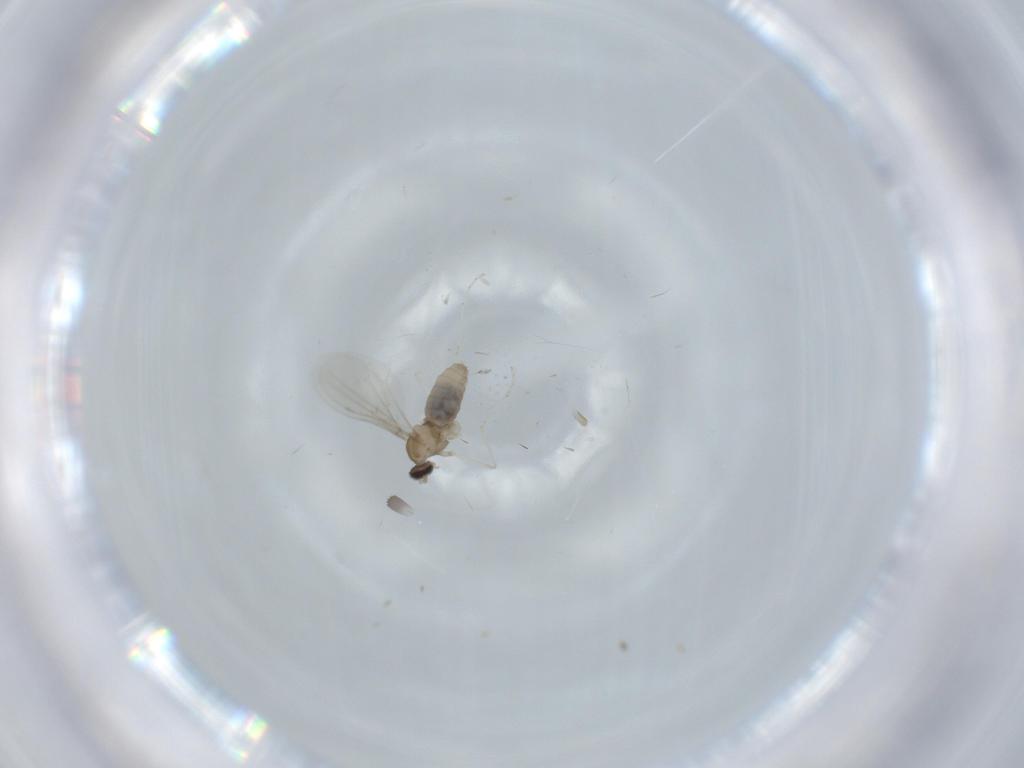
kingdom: Animalia
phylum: Arthropoda
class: Insecta
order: Diptera
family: Cecidomyiidae
